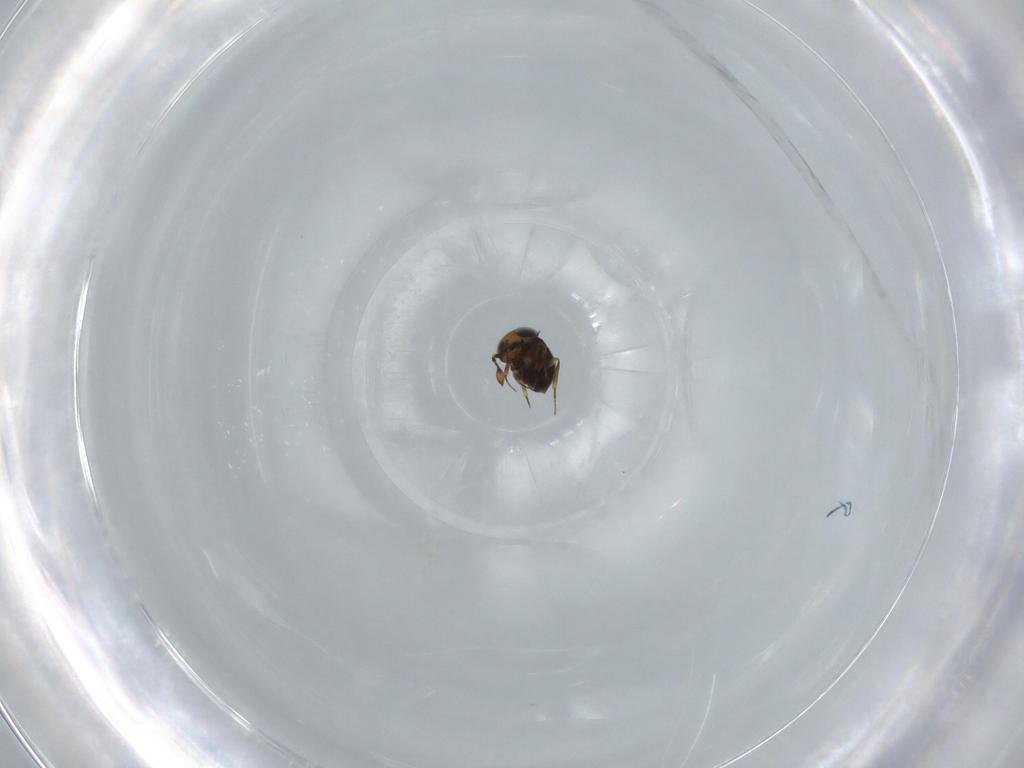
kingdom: Animalia
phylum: Arthropoda
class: Insecta
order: Hymenoptera
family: Scelionidae
